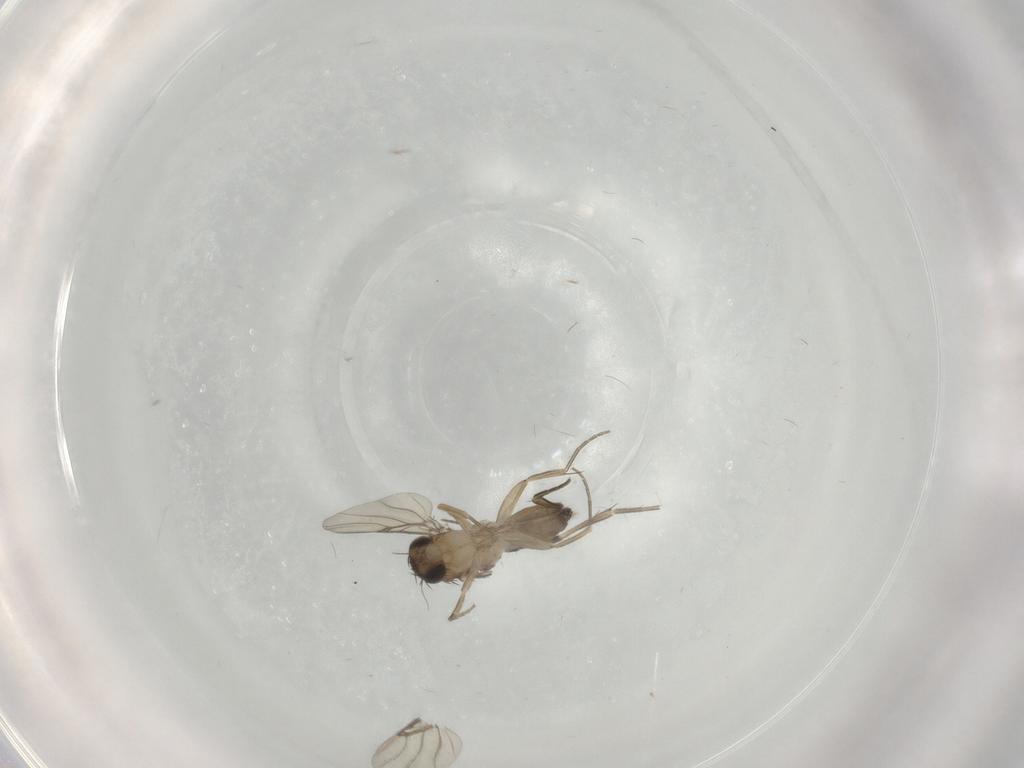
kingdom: Animalia
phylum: Arthropoda
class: Insecta
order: Diptera
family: Phoridae
